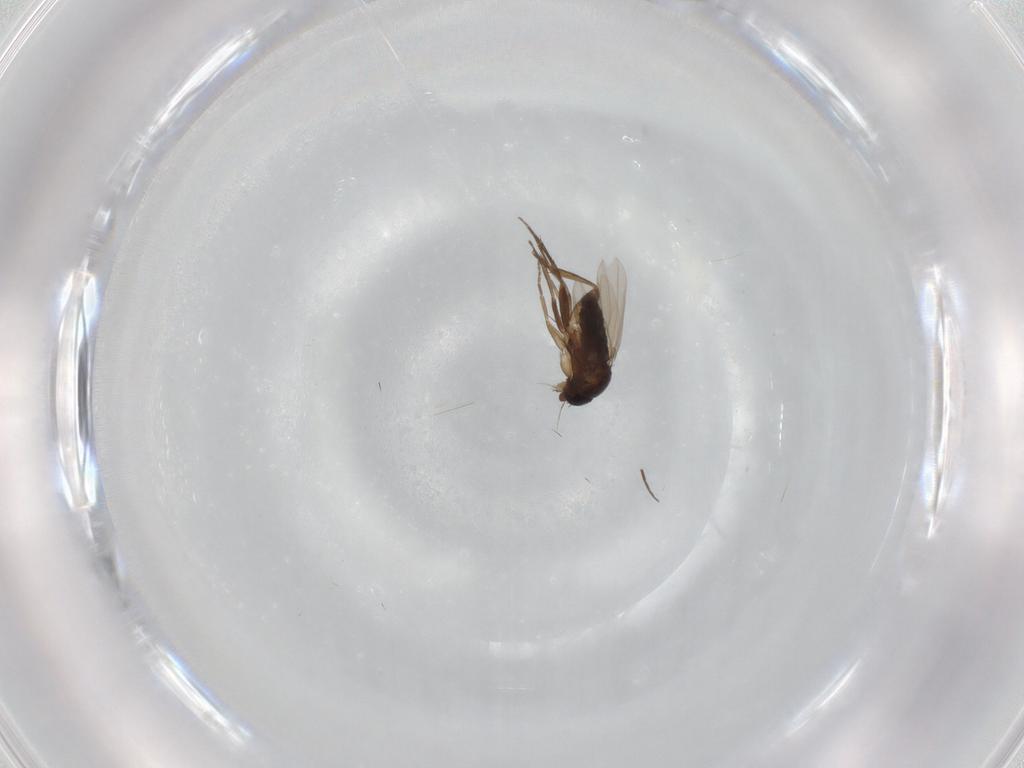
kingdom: Animalia
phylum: Arthropoda
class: Insecta
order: Diptera
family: Phoridae
